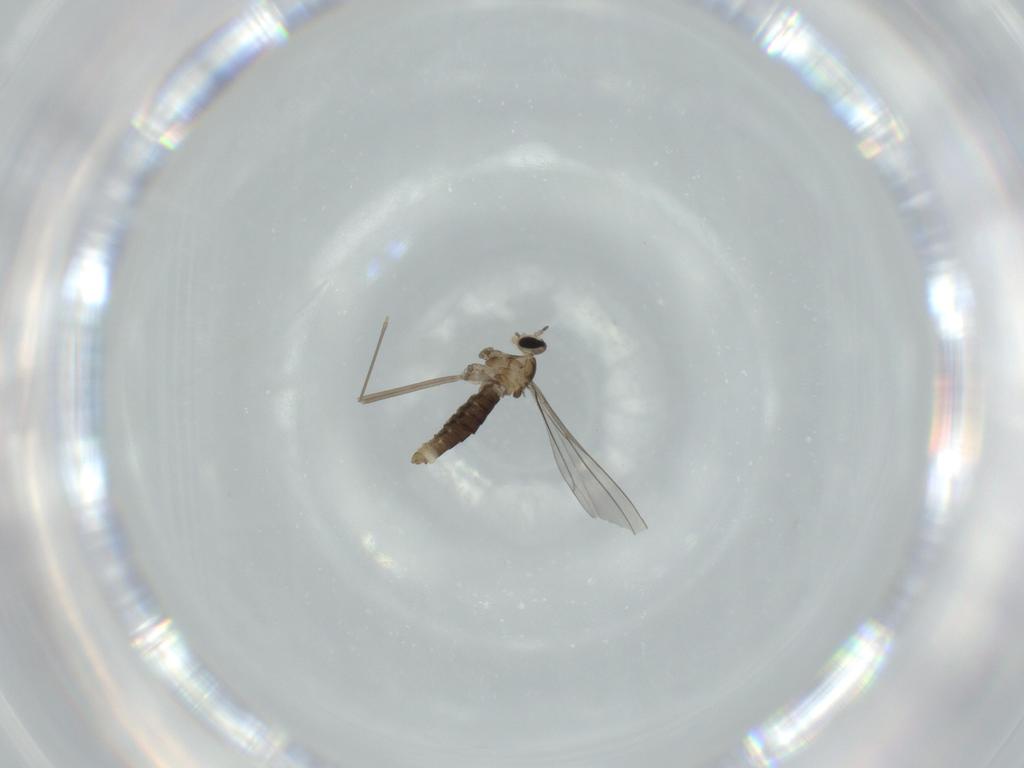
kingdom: Animalia
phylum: Arthropoda
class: Insecta
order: Diptera
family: Cecidomyiidae
